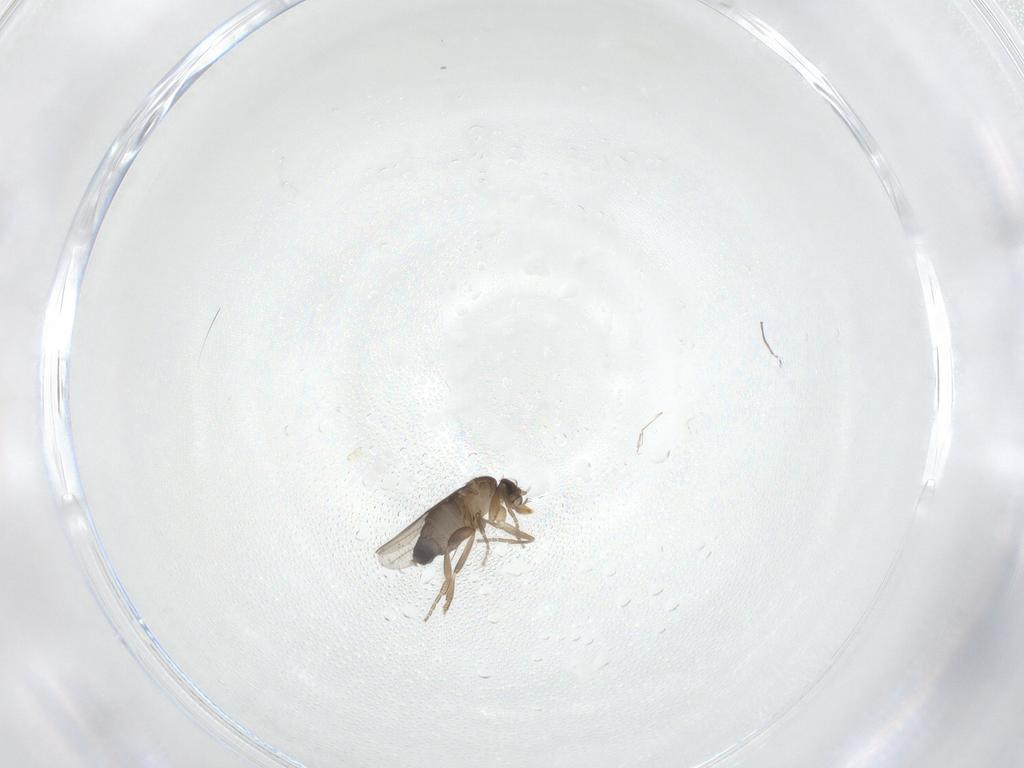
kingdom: Animalia
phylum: Arthropoda
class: Insecta
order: Diptera
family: Phoridae
